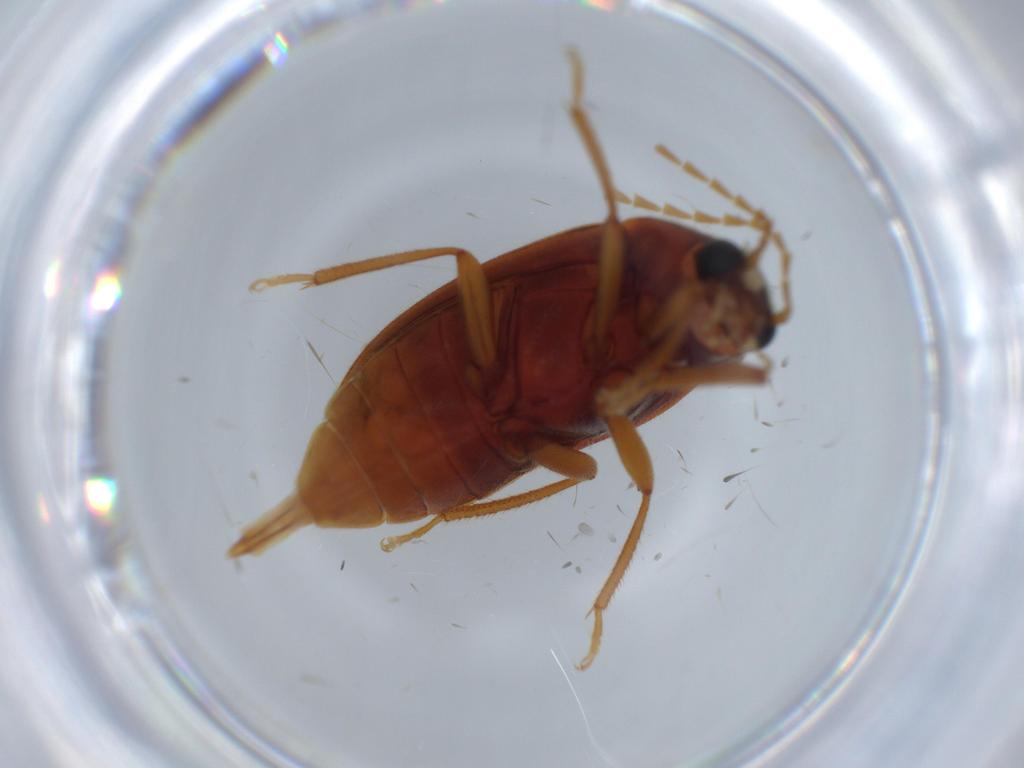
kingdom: Animalia
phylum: Arthropoda
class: Insecta
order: Coleoptera
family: Ptilodactylidae
